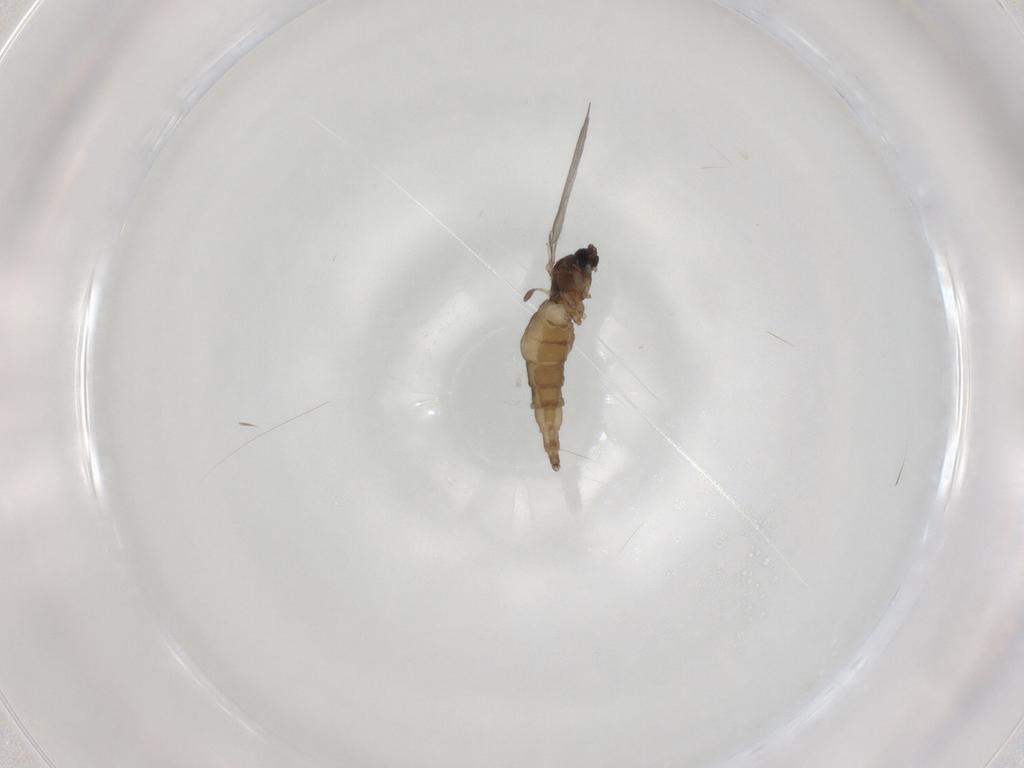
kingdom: Animalia
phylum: Arthropoda
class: Insecta
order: Diptera
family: Sciaridae
